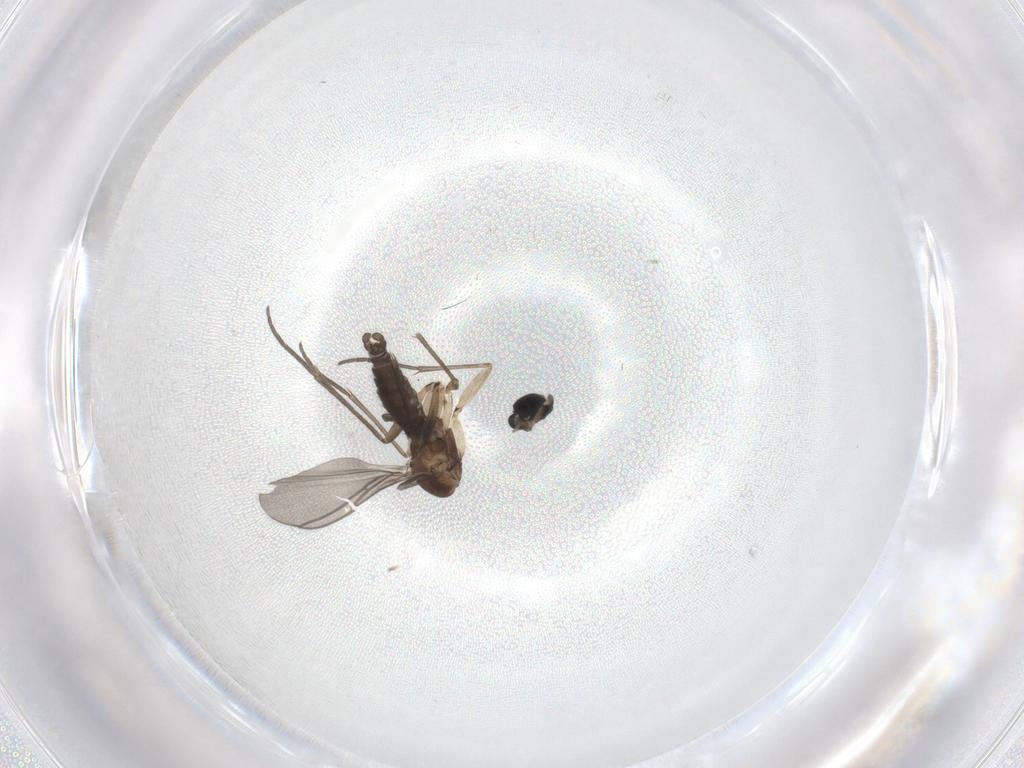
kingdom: Animalia
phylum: Arthropoda
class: Insecta
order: Diptera
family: Sciaridae
